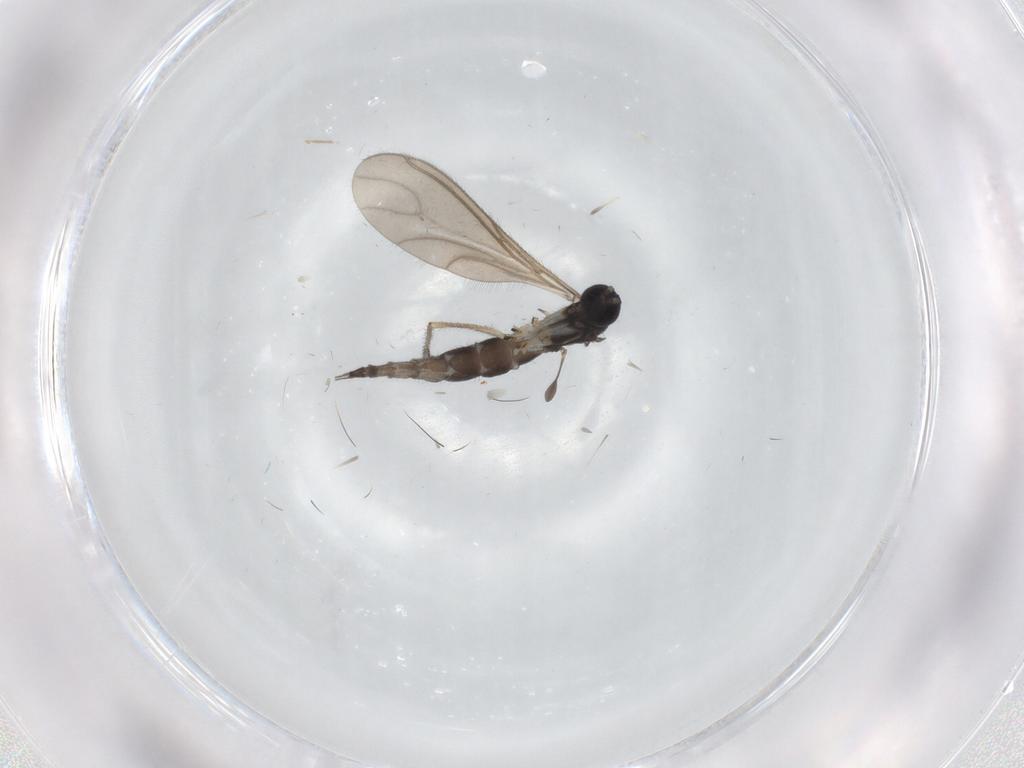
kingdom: Animalia
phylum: Arthropoda
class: Insecta
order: Diptera
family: Sciaridae
